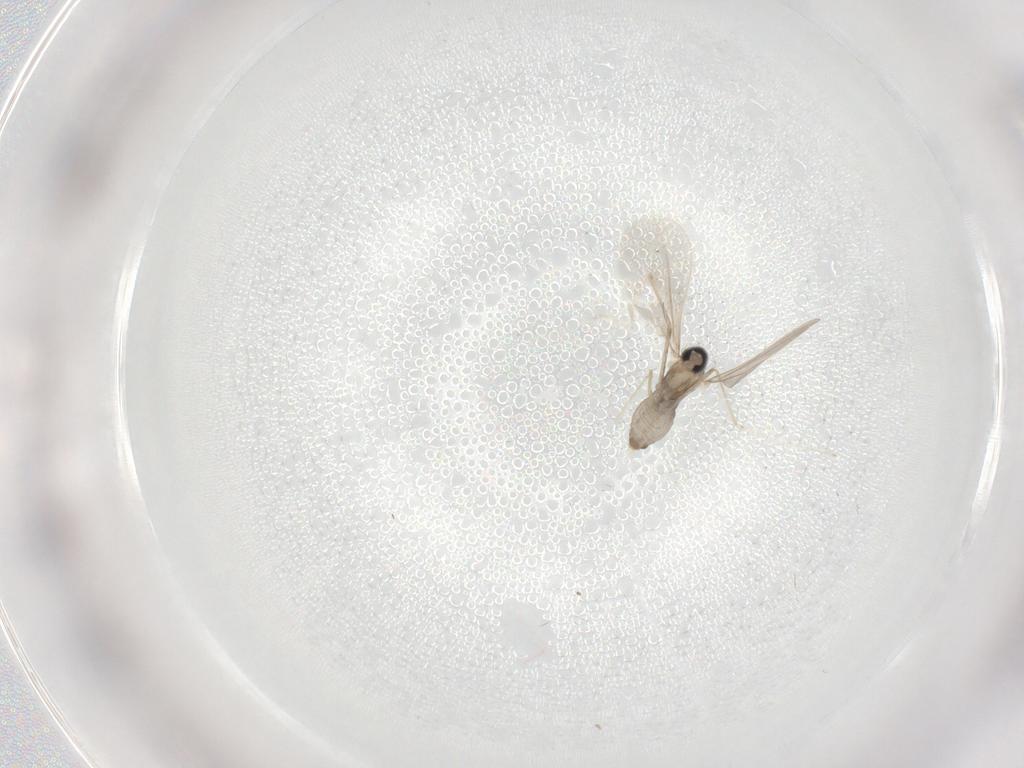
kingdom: Animalia
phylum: Arthropoda
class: Insecta
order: Diptera
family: Cecidomyiidae
